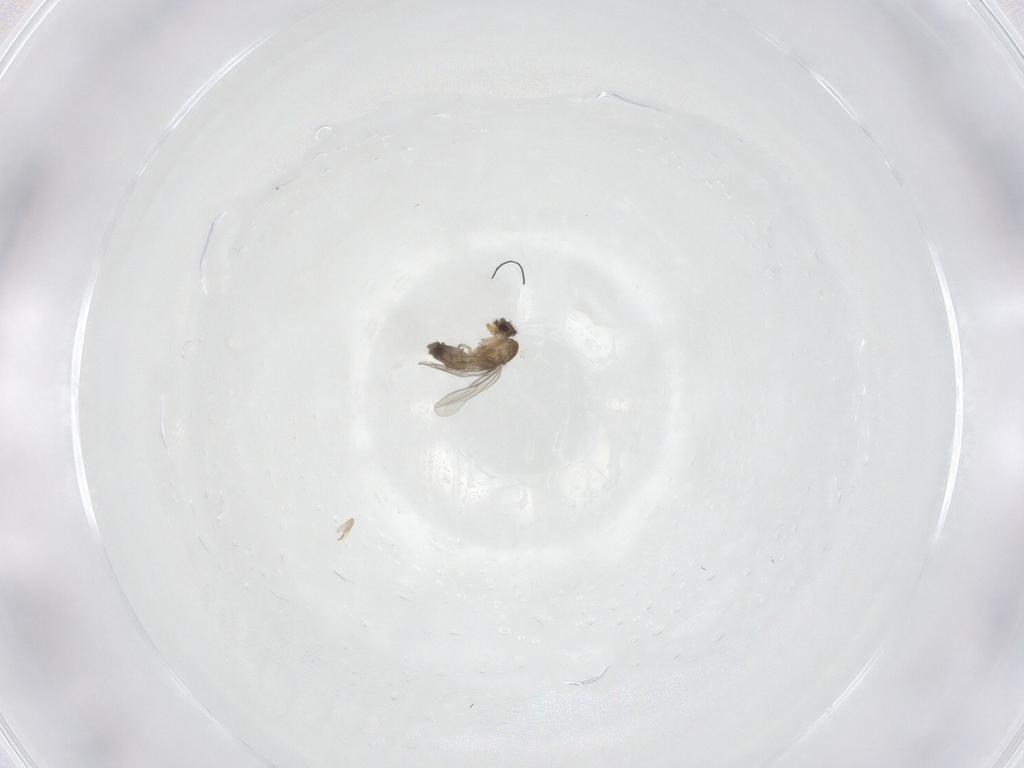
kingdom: Animalia
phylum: Arthropoda
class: Insecta
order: Diptera
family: Phoridae
